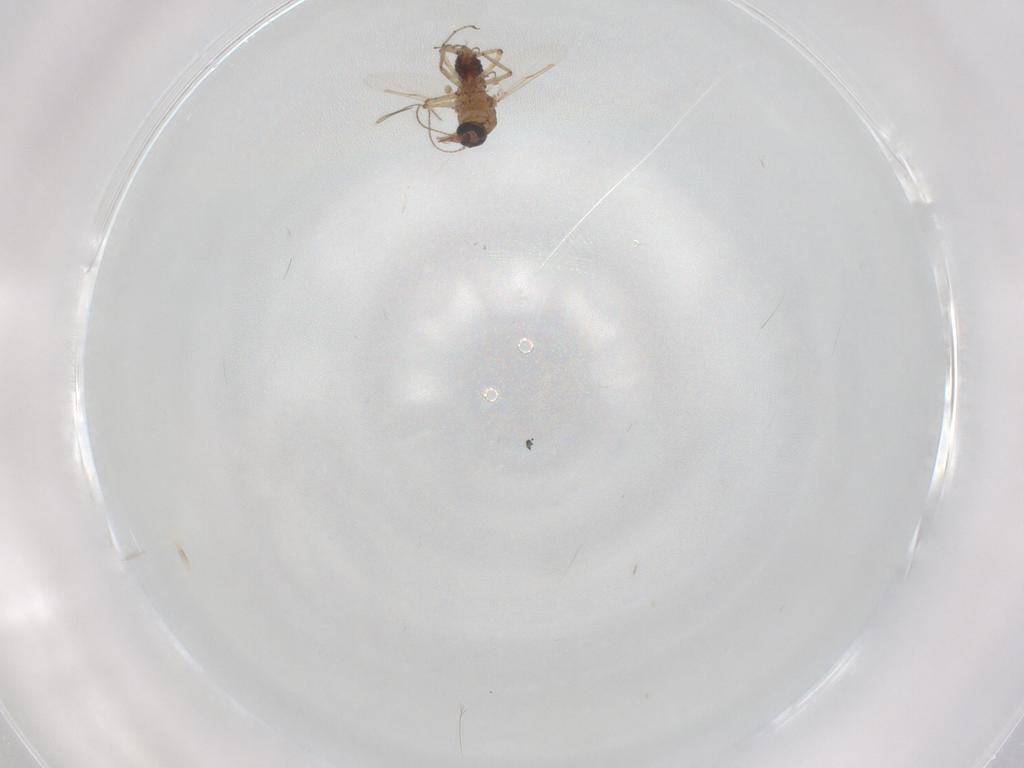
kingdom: Animalia
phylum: Arthropoda
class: Insecta
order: Diptera
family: Ceratopogonidae
